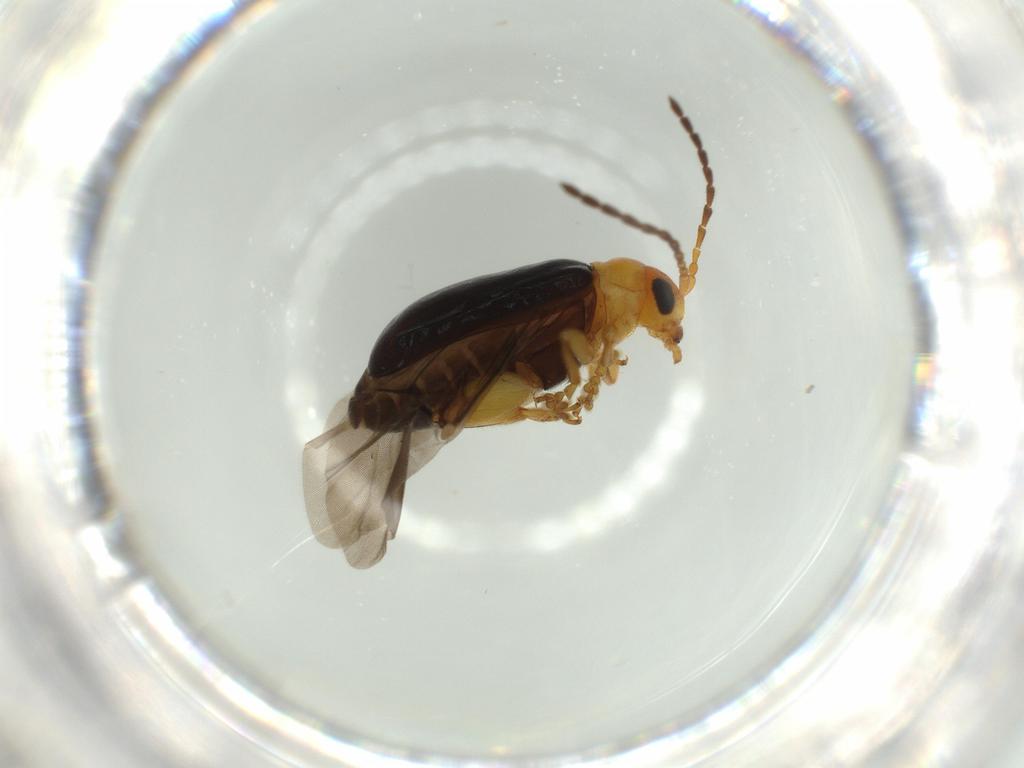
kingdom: Animalia
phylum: Arthropoda
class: Insecta
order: Coleoptera
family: Chrysomelidae
